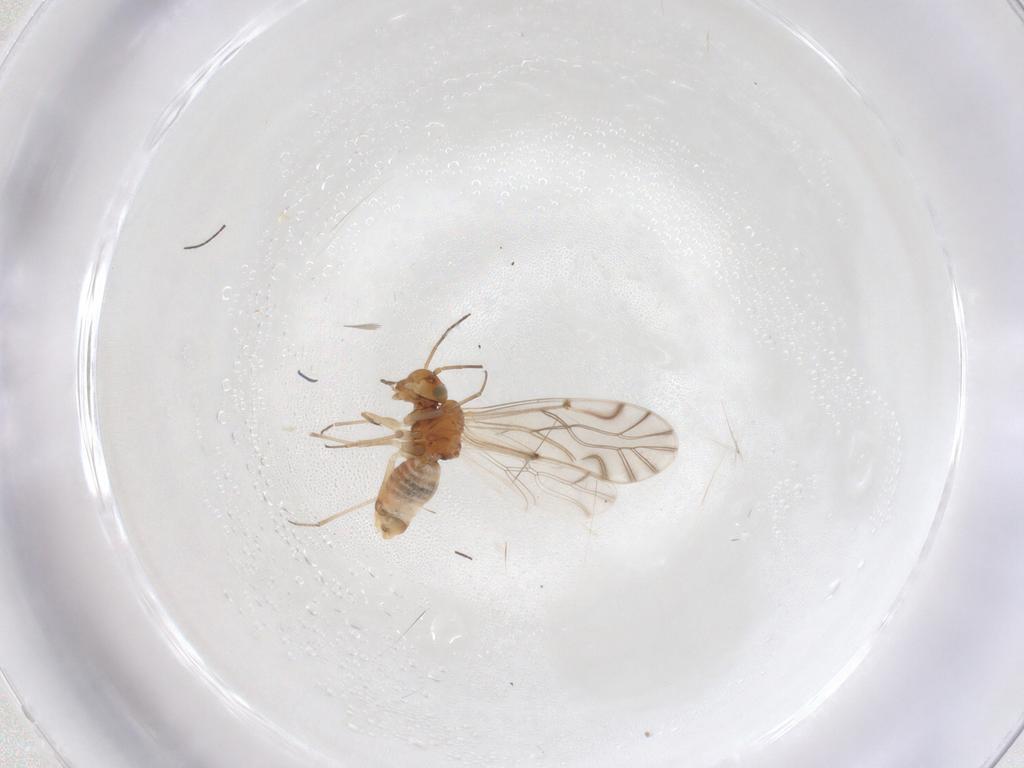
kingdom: Animalia
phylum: Arthropoda
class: Insecta
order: Psocodea
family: Lachesillidae
